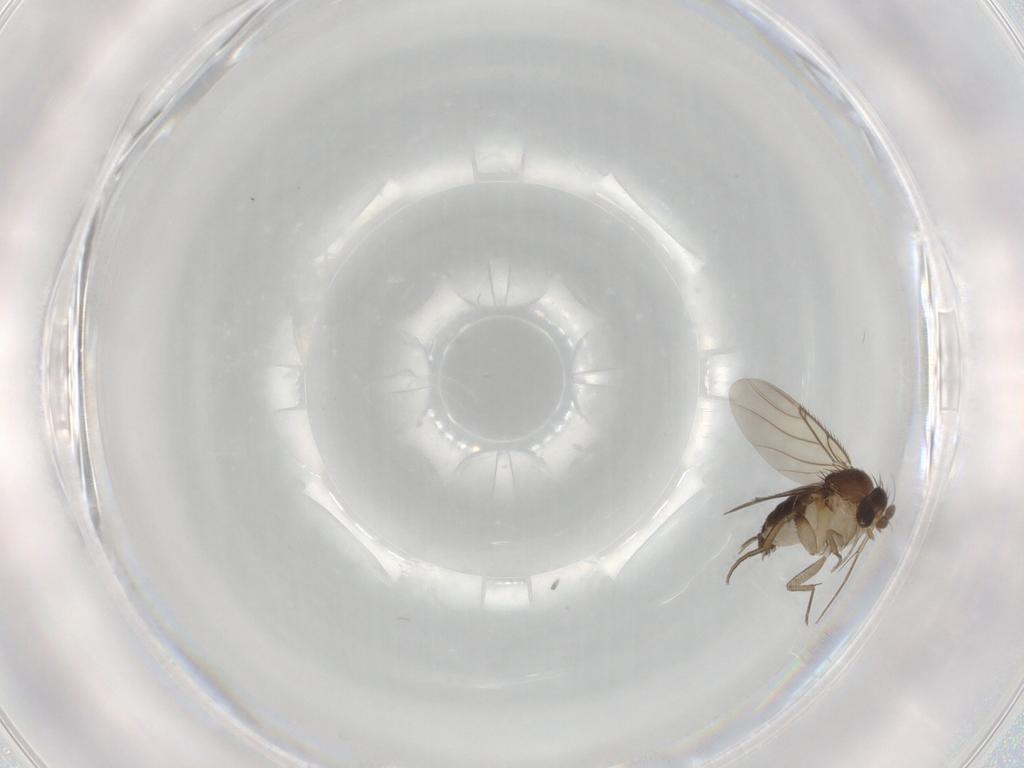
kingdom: Animalia
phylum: Arthropoda
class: Insecta
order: Diptera
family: Phoridae
